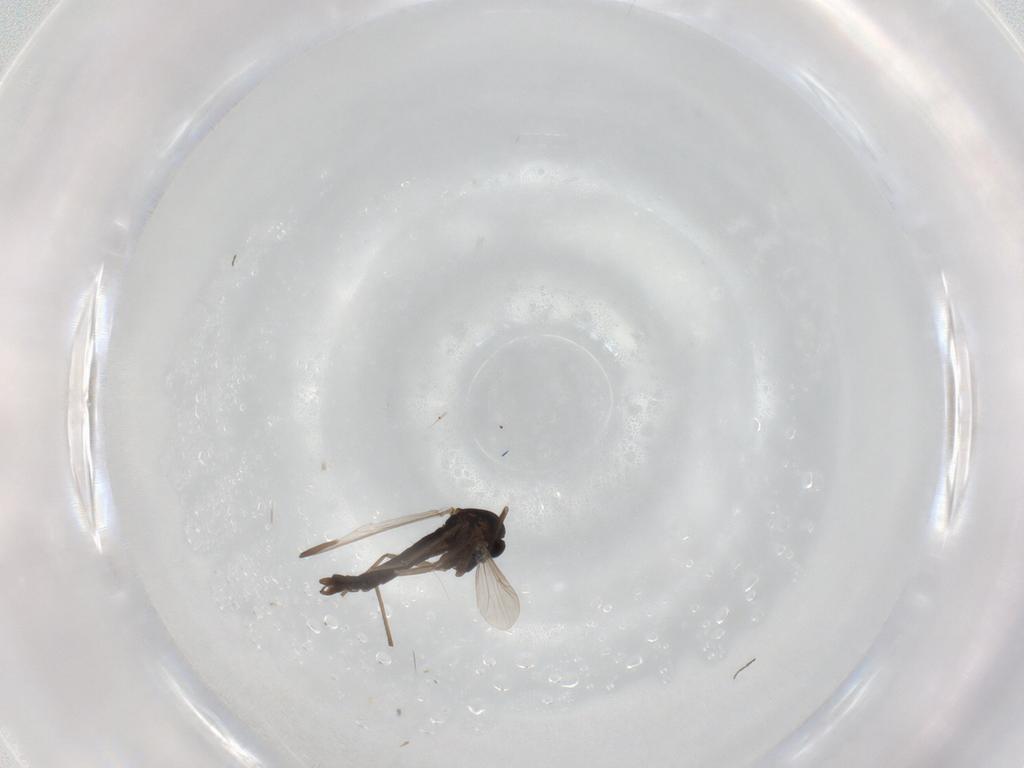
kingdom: Animalia
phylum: Arthropoda
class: Insecta
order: Diptera
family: Chironomidae
